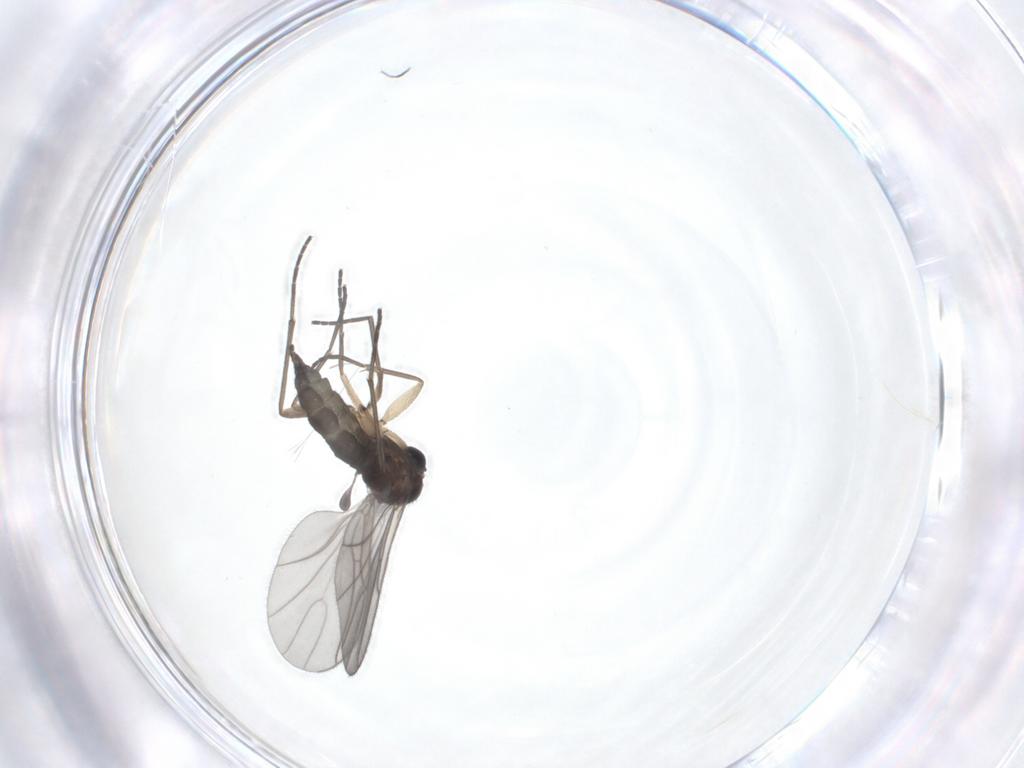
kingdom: Animalia
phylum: Arthropoda
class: Insecta
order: Diptera
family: Sciaridae
